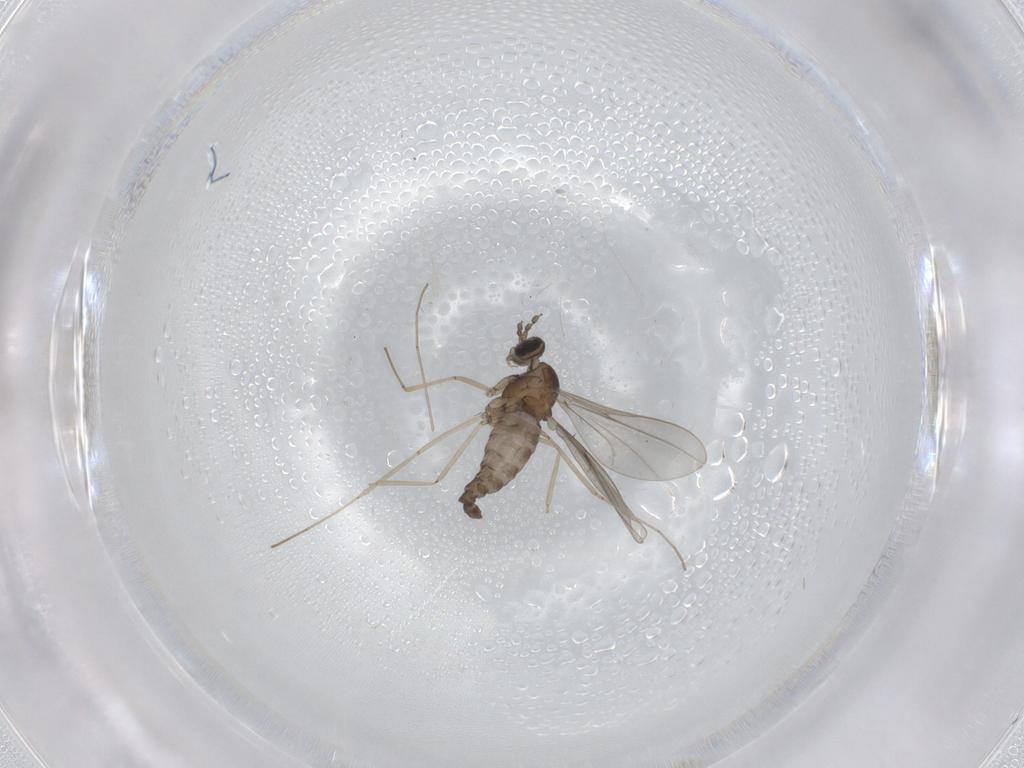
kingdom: Animalia
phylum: Arthropoda
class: Insecta
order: Diptera
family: Cecidomyiidae
